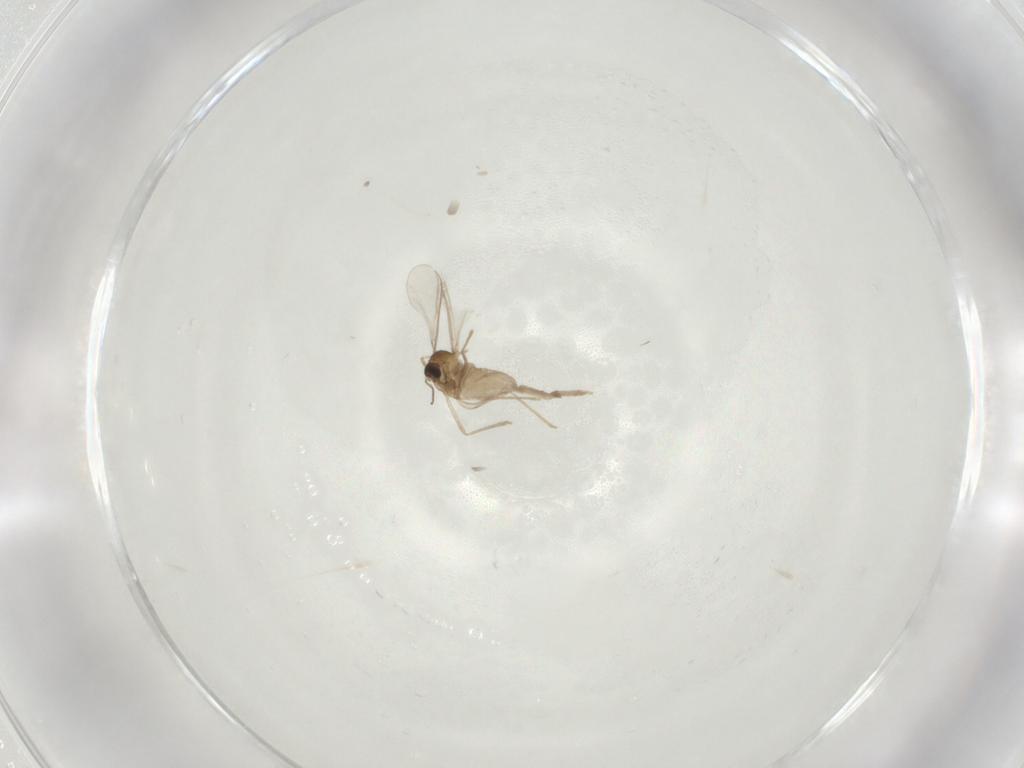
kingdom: Animalia
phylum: Arthropoda
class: Insecta
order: Diptera
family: Cecidomyiidae
